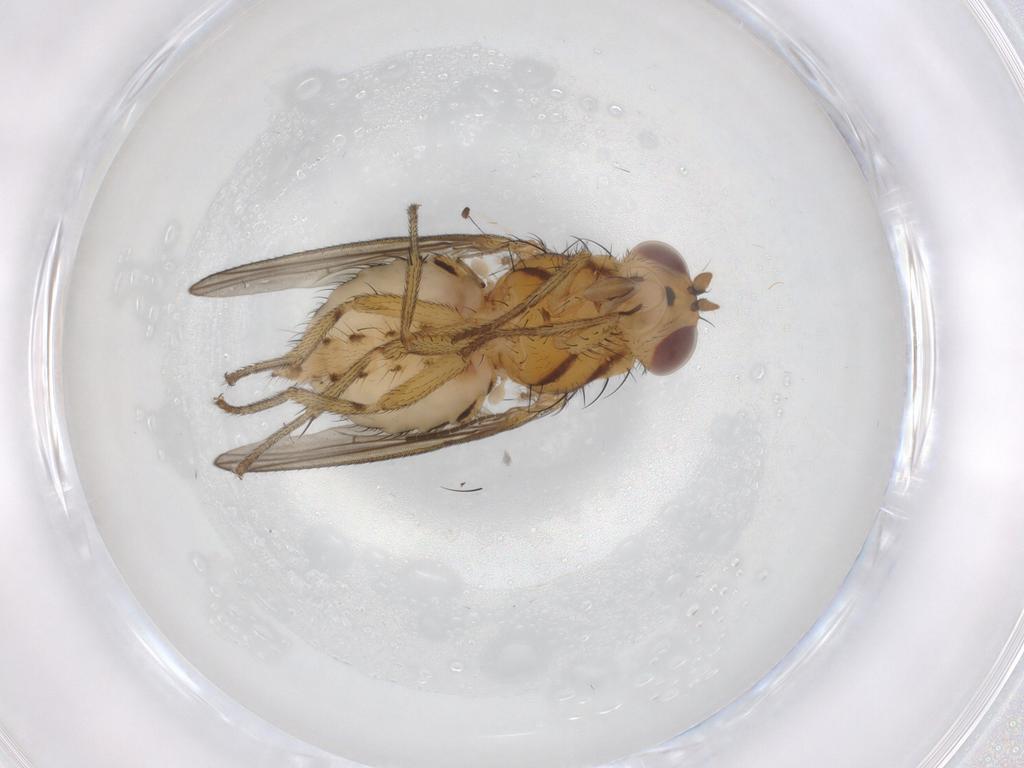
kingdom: Animalia
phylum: Arthropoda
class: Insecta
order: Diptera
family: Sciaridae
